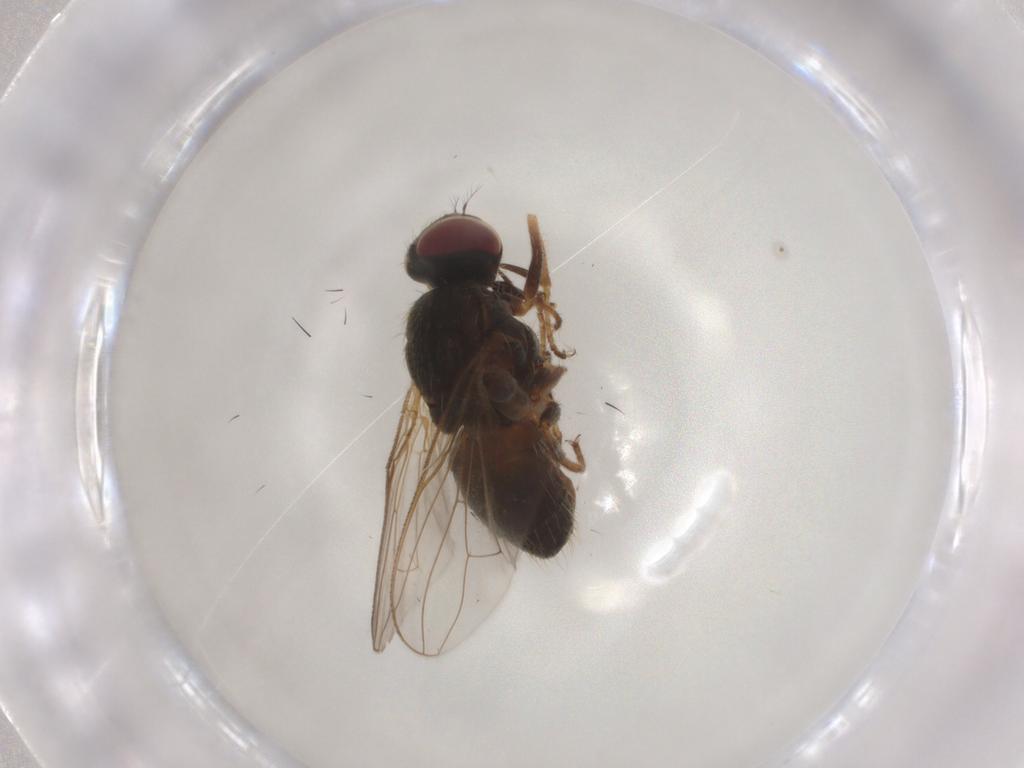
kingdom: Animalia
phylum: Arthropoda
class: Insecta
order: Diptera
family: Muscidae
